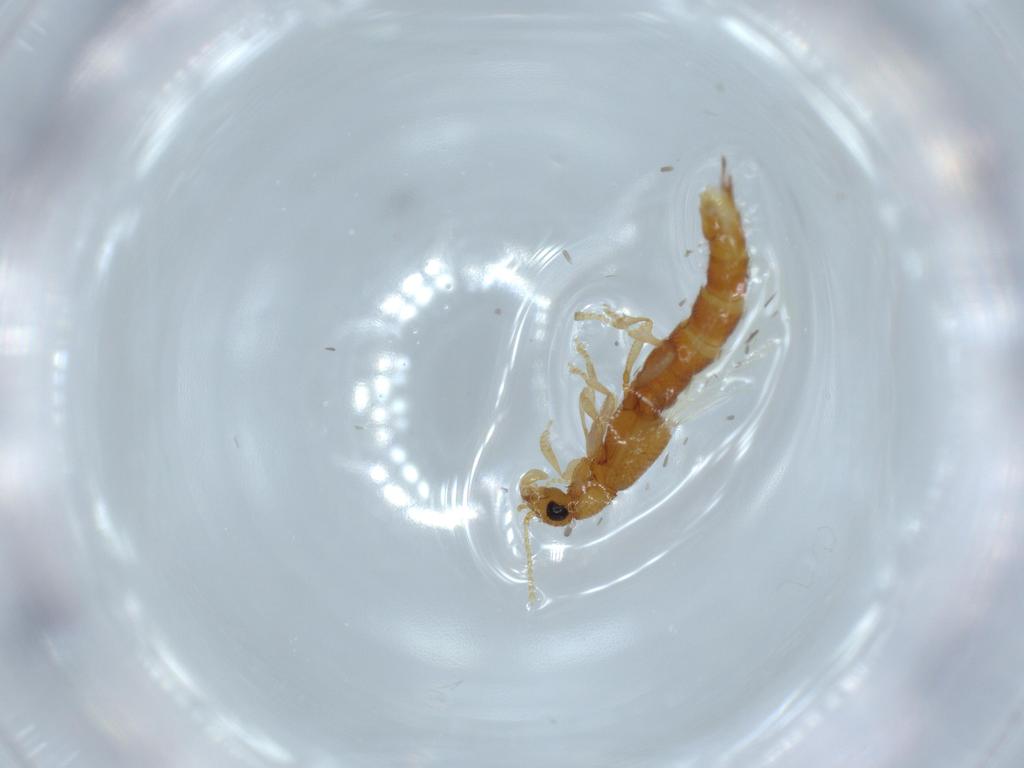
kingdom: Animalia
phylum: Arthropoda
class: Insecta
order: Coleoptera
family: Staphylinidae
